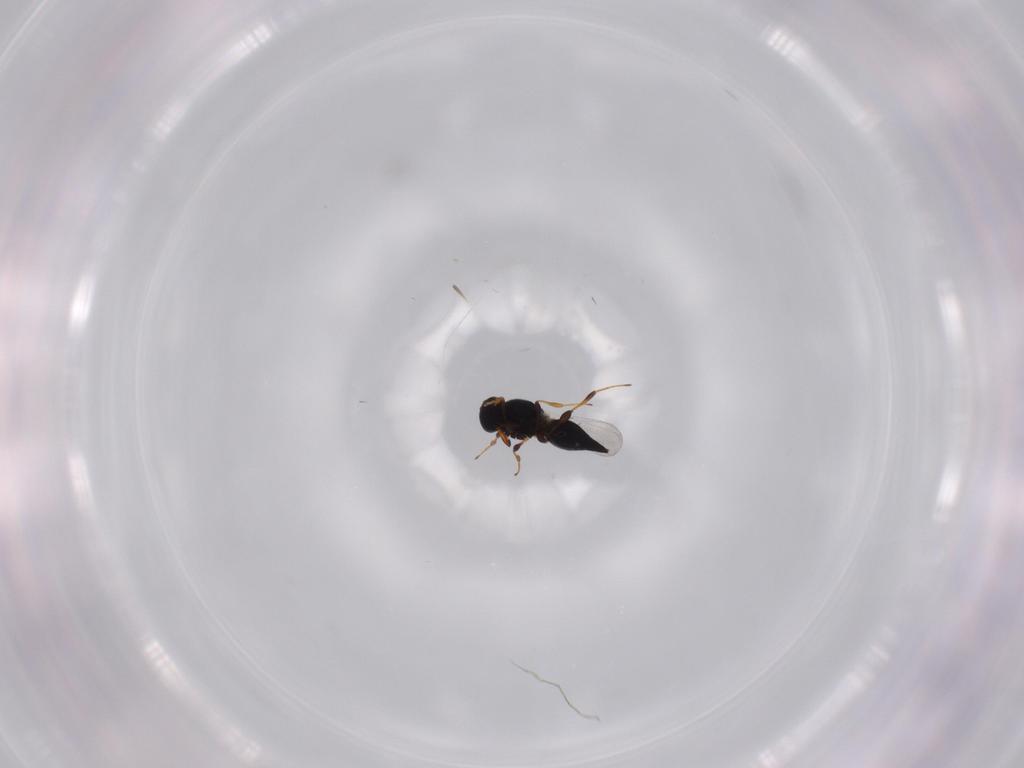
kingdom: Animalia
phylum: Arthropoda
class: Insecta
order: Hymenoptera
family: Platygastridae
